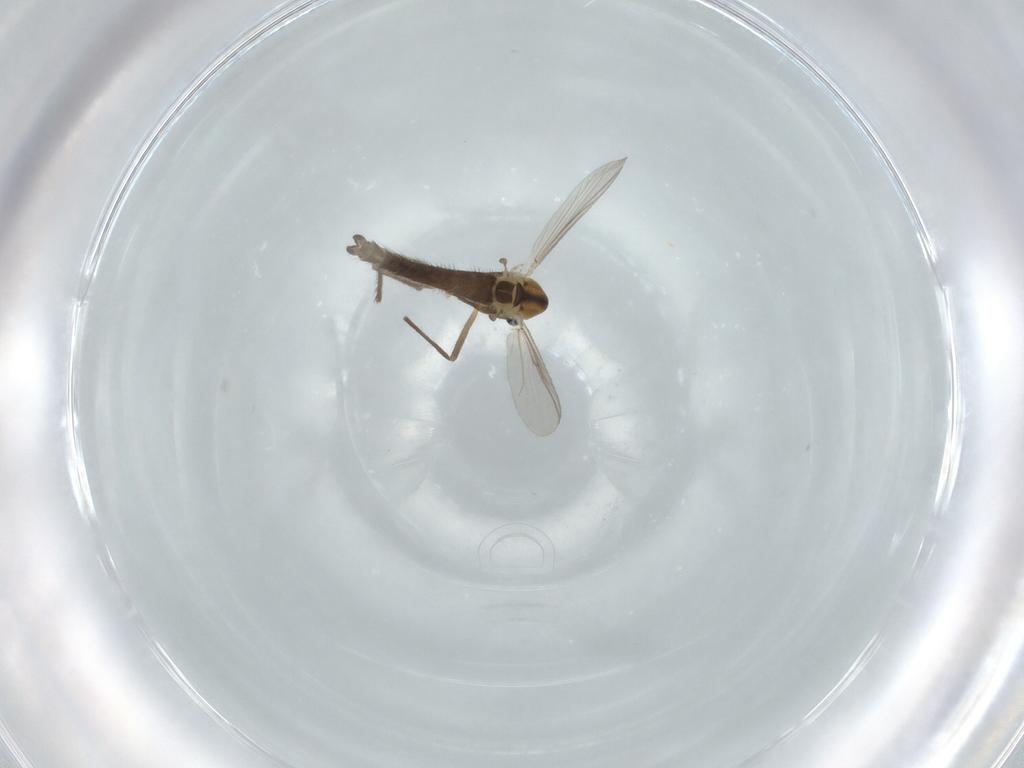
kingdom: Animalia
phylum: Arthropoda
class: Insecta
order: Diptera
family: Chironomidae
